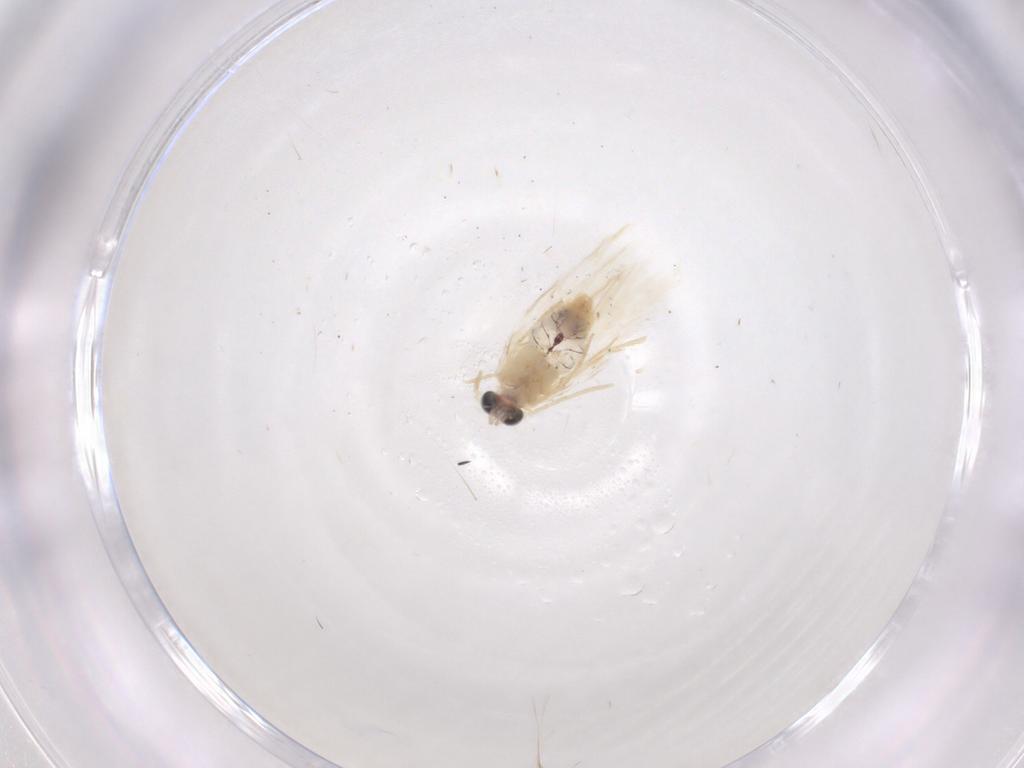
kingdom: Animalia
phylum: Arthropoda
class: Insecta
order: Lepidoptera
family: Nepticulidae
